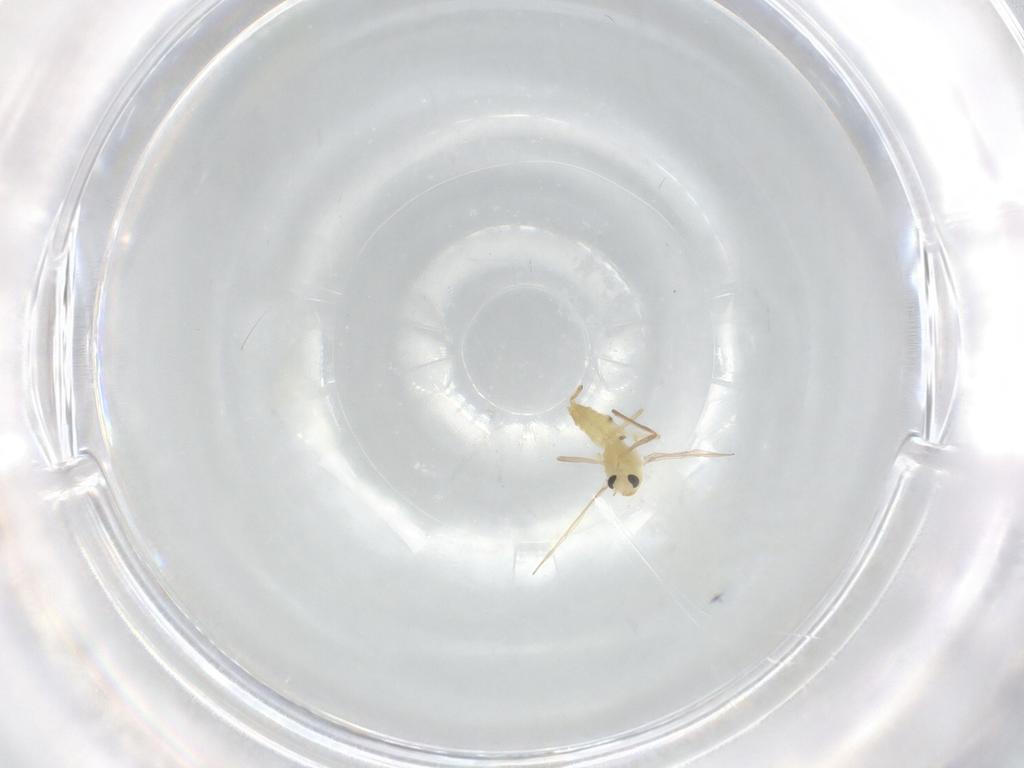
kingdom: Animalia
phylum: Arthropoda
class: Insecta
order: Diptera
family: Chironomidae
